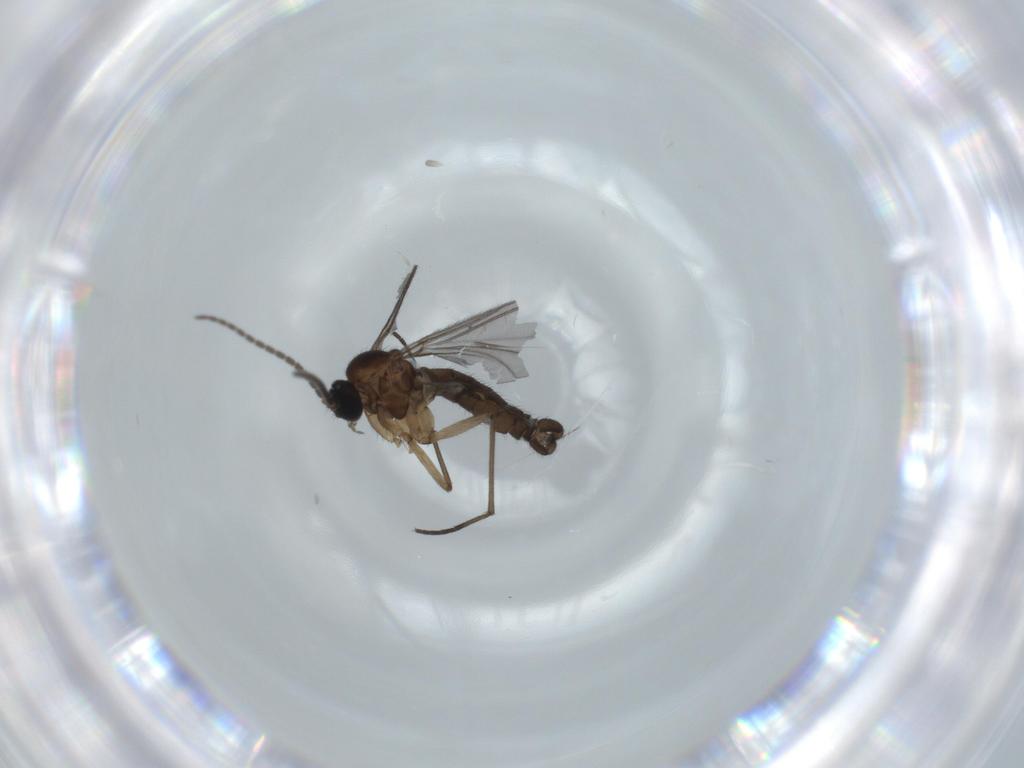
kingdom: Animalia
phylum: Arthropoda
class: Insecta
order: Diptera
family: Sciaridae
